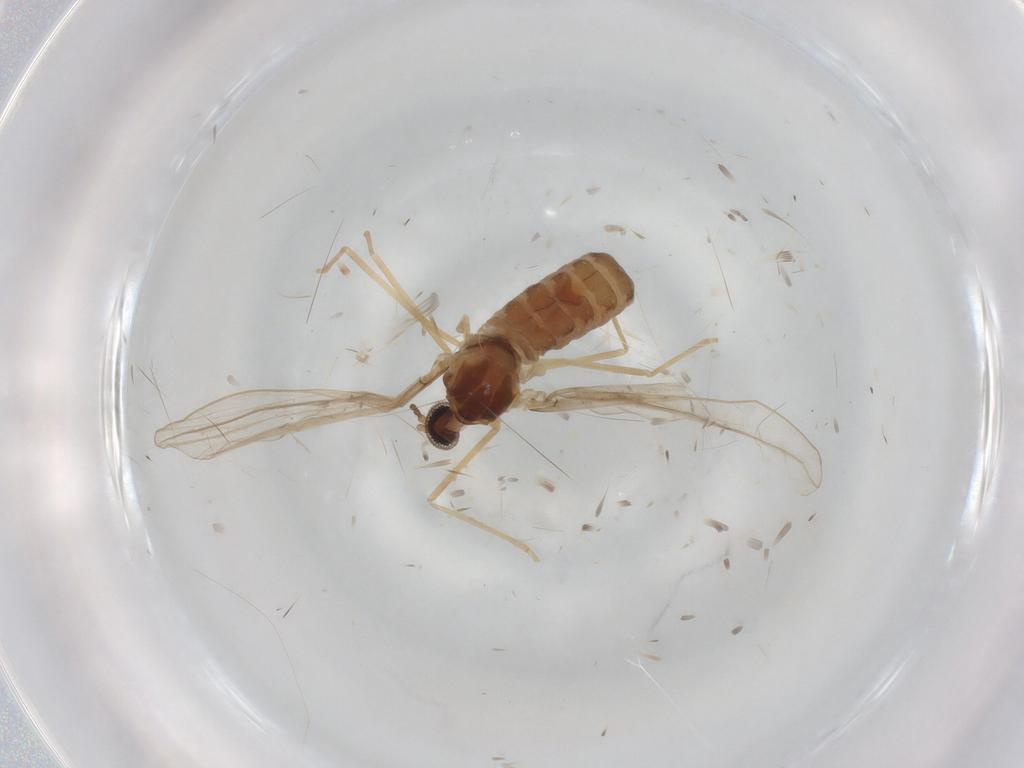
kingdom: Animalia
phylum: Arthropoda
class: Insecta
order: Diptera
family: Cecidomyiidae
